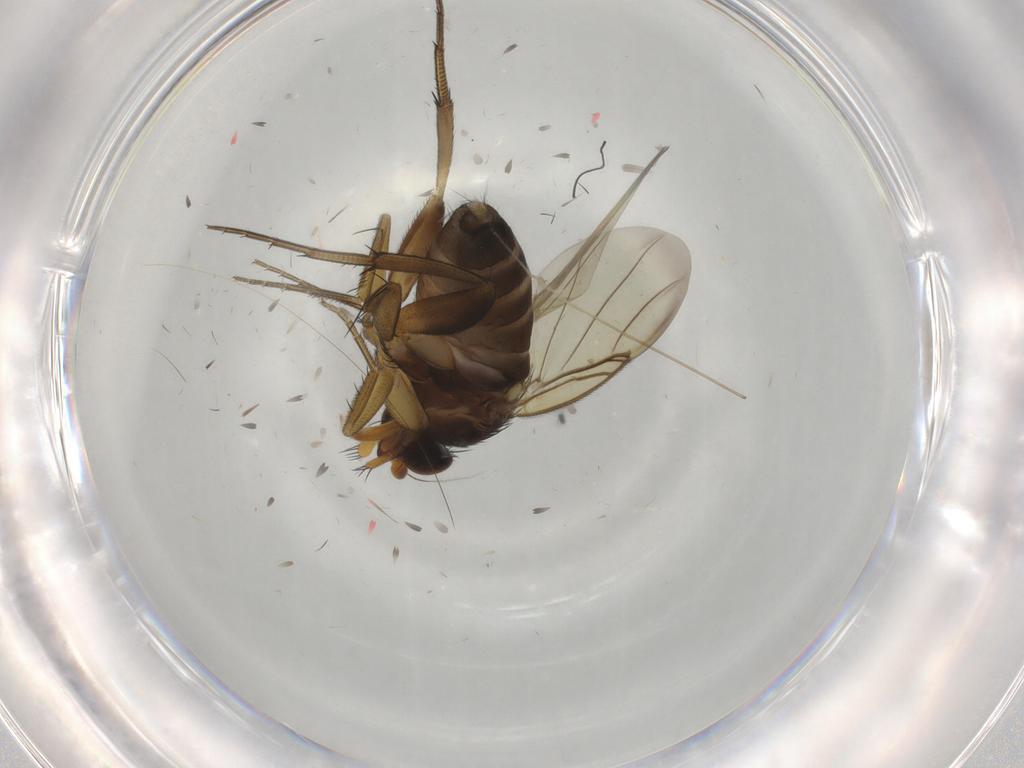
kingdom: Animalia
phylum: Arthropoda
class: Insecta
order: Diptera
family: Phoridae
